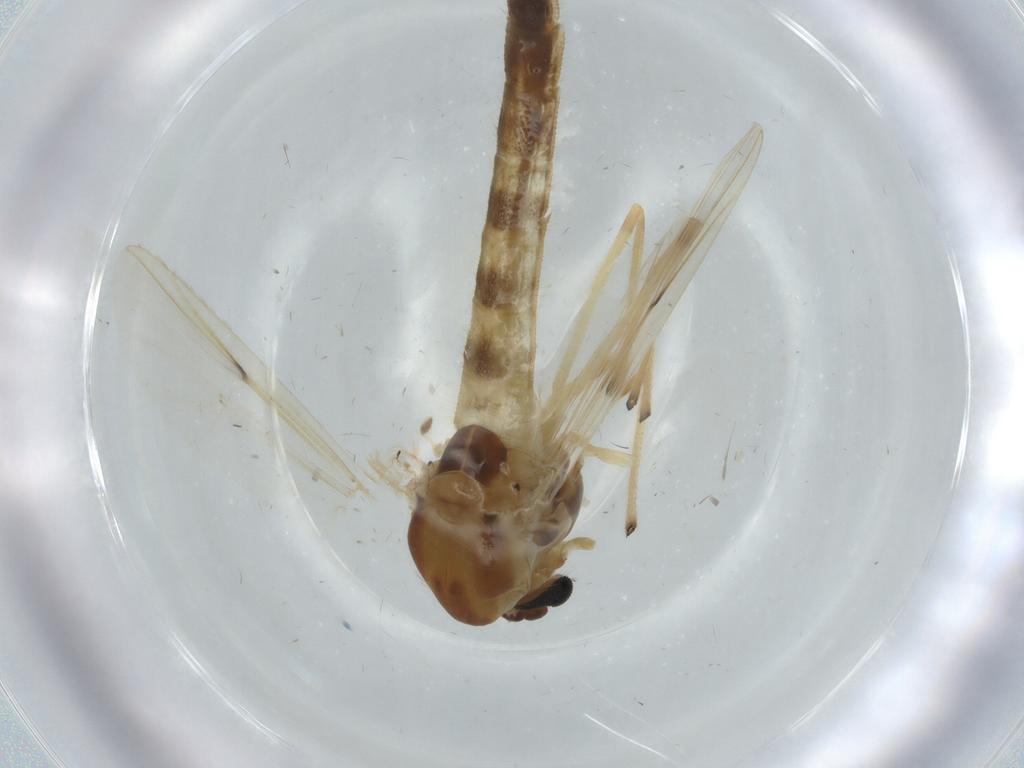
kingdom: Animalia
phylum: Arthropoda
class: Insecta
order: Diptera
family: Chironomidae
